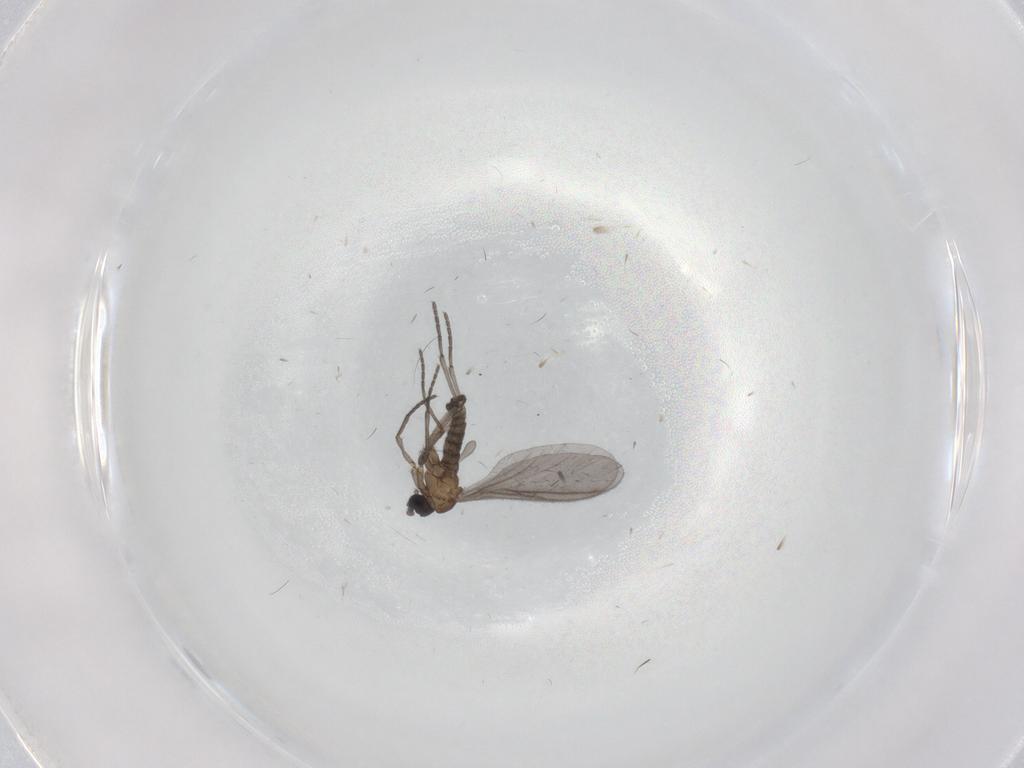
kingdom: Animalia
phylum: Arthropoda
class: Insecta
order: Diptera
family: Sciaridae
